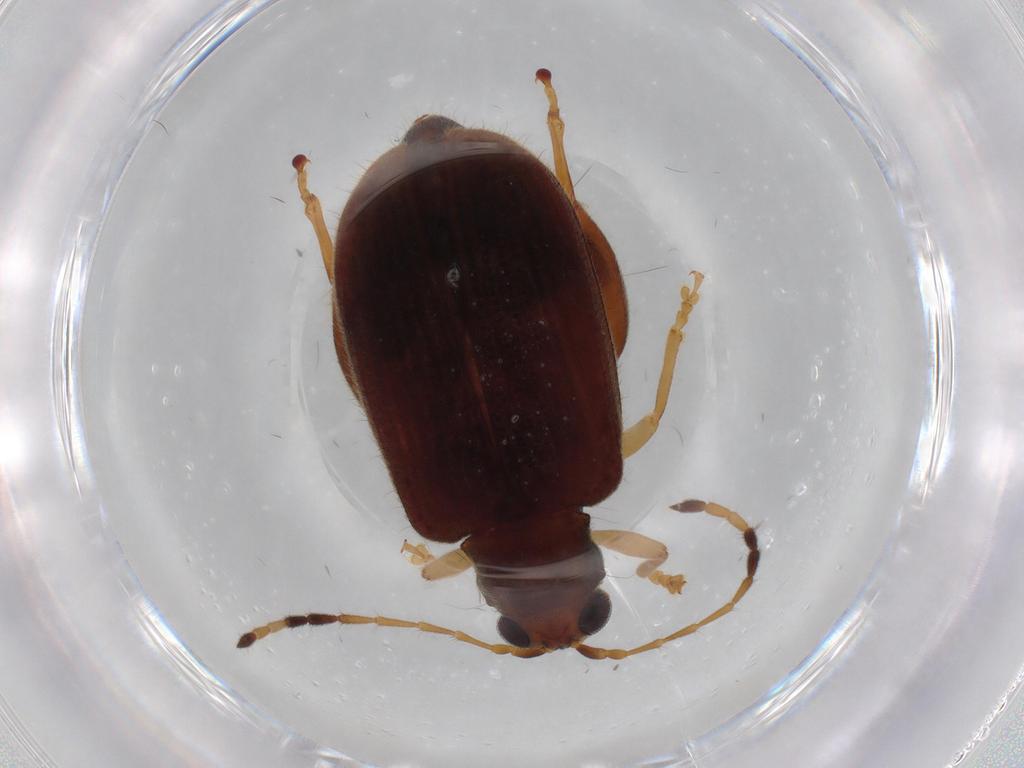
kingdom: Animalia
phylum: Arthropoda
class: Insecta
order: Coleoptera
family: Chrysomelidae
